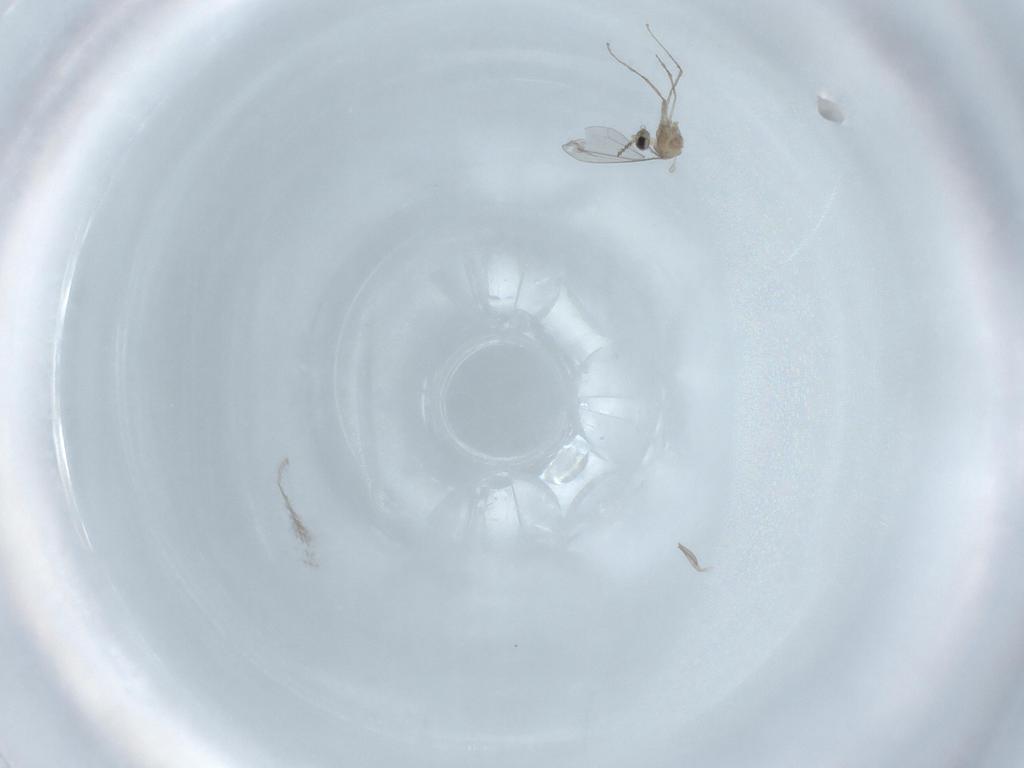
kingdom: Animalia
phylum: Arthropoda
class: Insecta
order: Diptera
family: Cecidomyiidae
